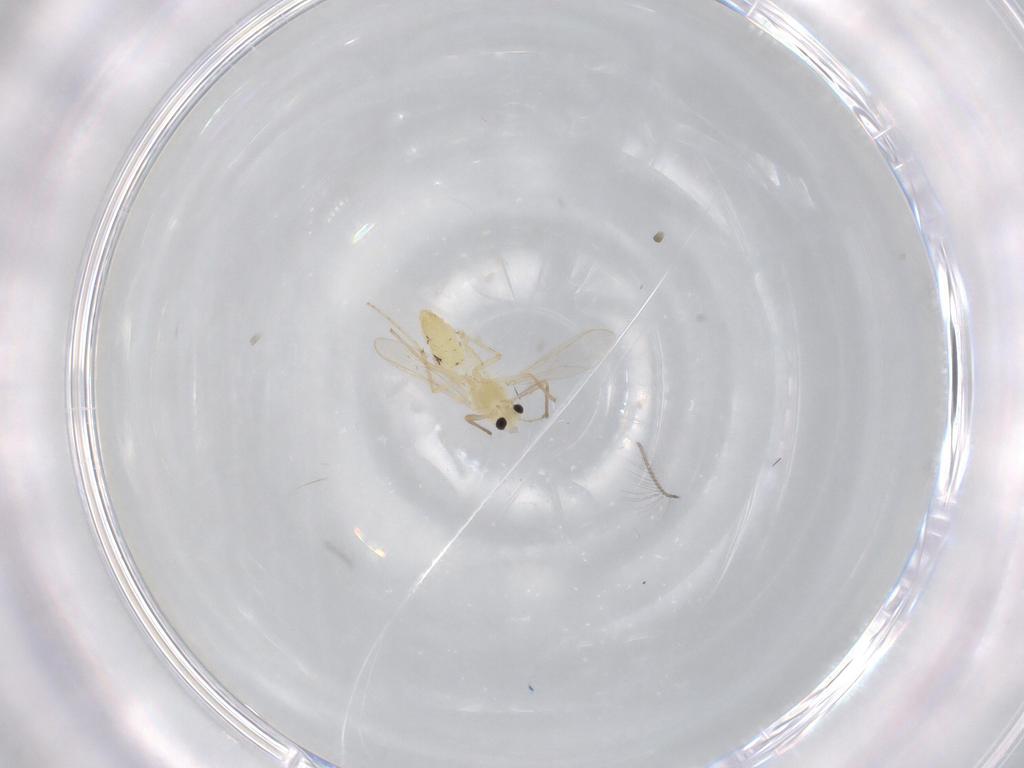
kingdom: Animalia
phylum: Arthropoda
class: Insecta
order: Diptera
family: Chironomidae
